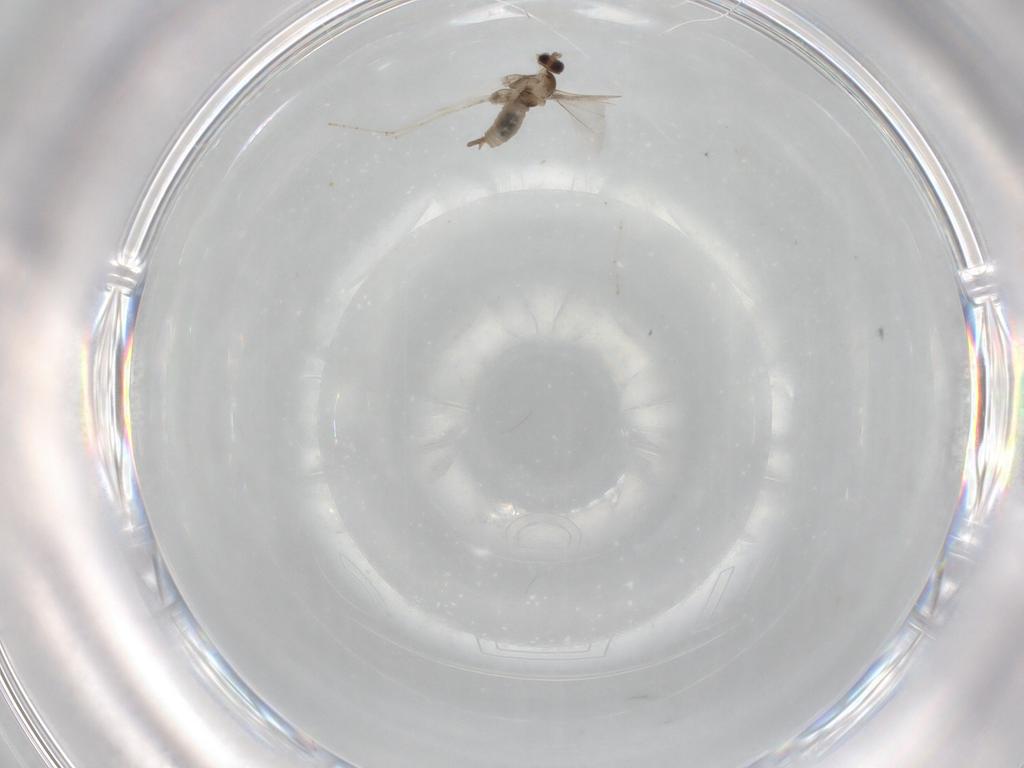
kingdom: Animalia
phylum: Arthropoda
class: Insecta
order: Diptera
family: Cecidomyiidae
